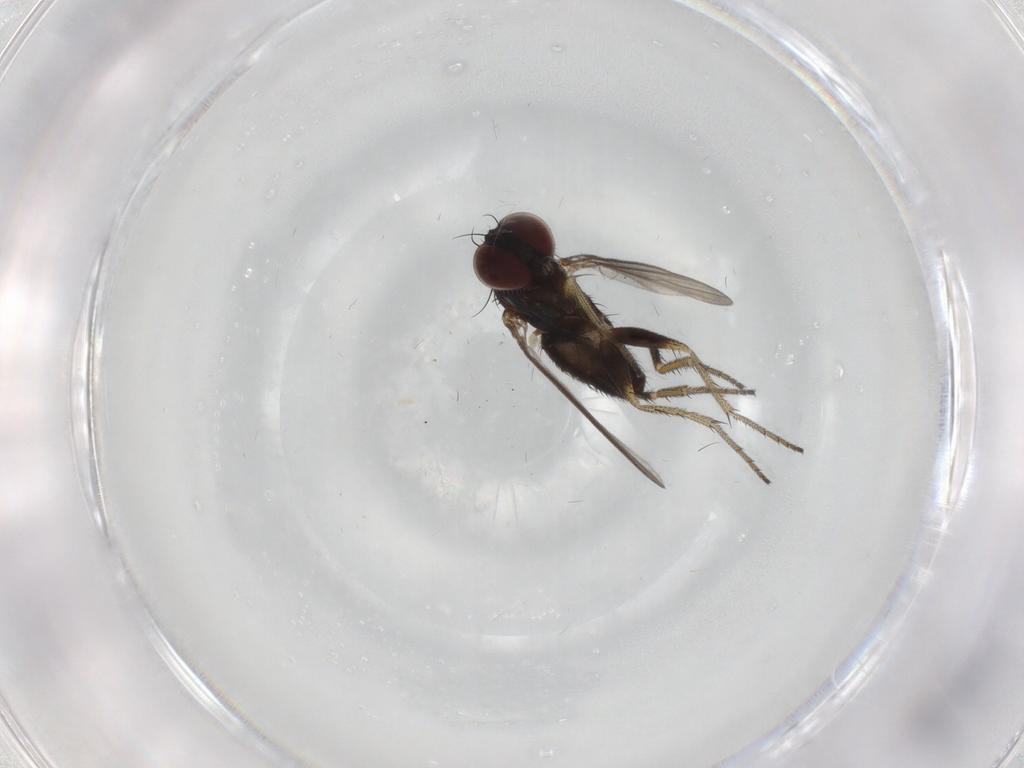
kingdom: Animalia
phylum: Arthropoda
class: Insecta
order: Diptera
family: Chironomidae
